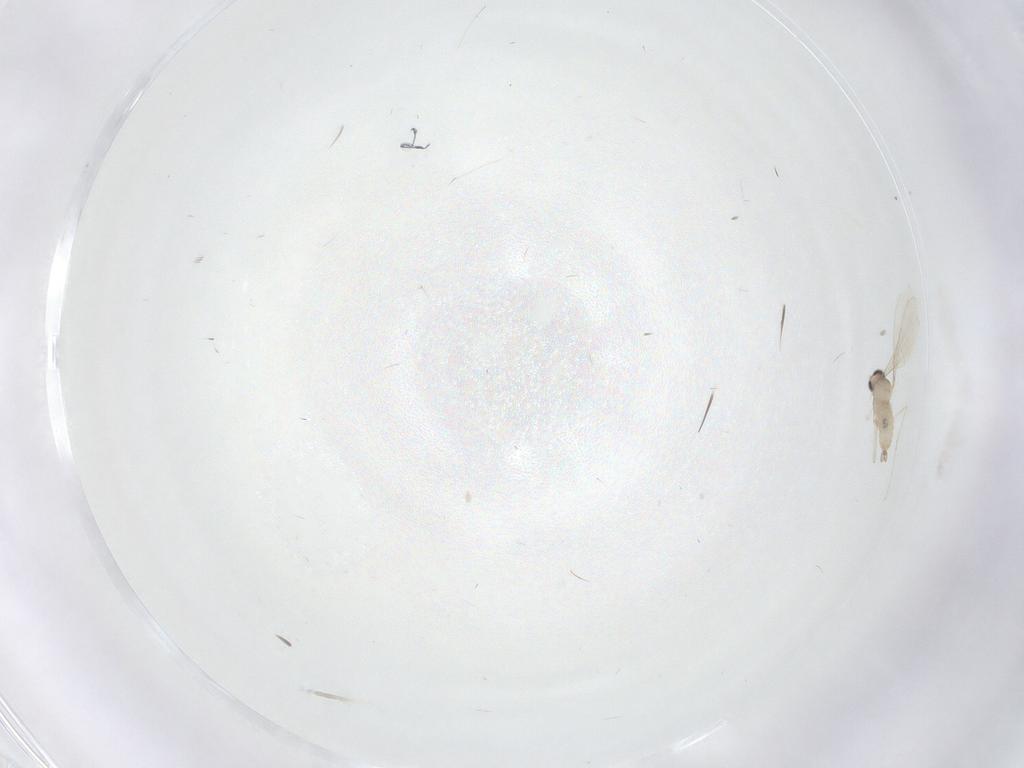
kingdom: Animalia
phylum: Arthropoda
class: Insecta
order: Diptera
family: Cecidomyiidae
